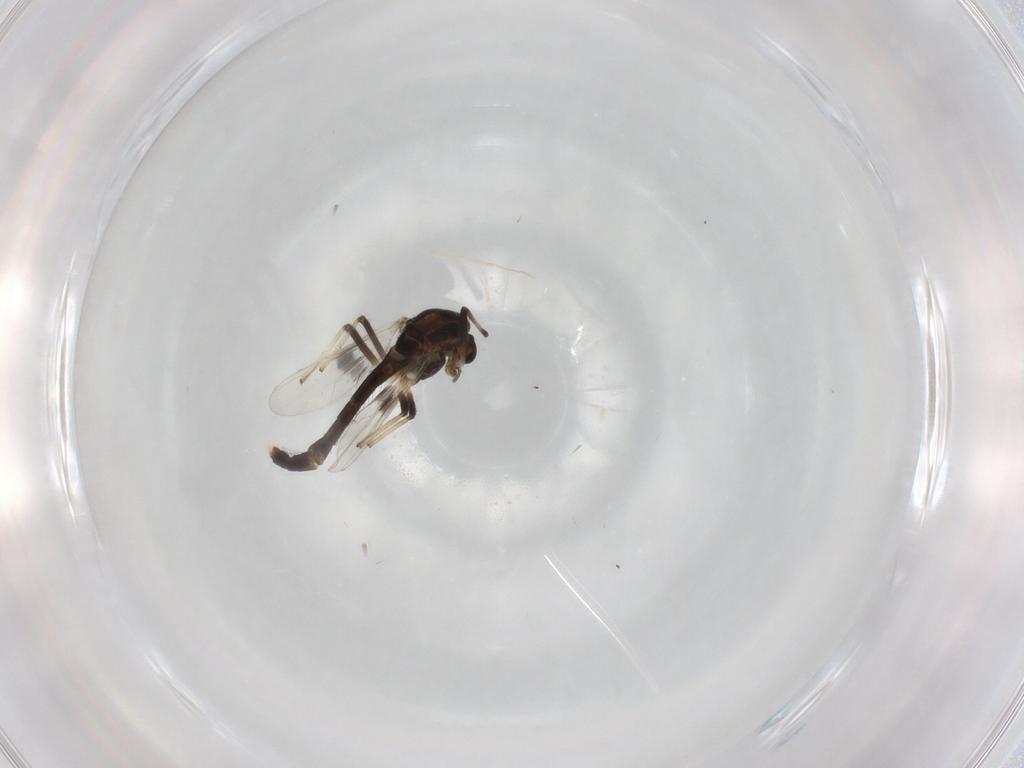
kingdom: Animalia
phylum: Arthropoda
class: Insecta
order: Diptera
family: Chironomidae
